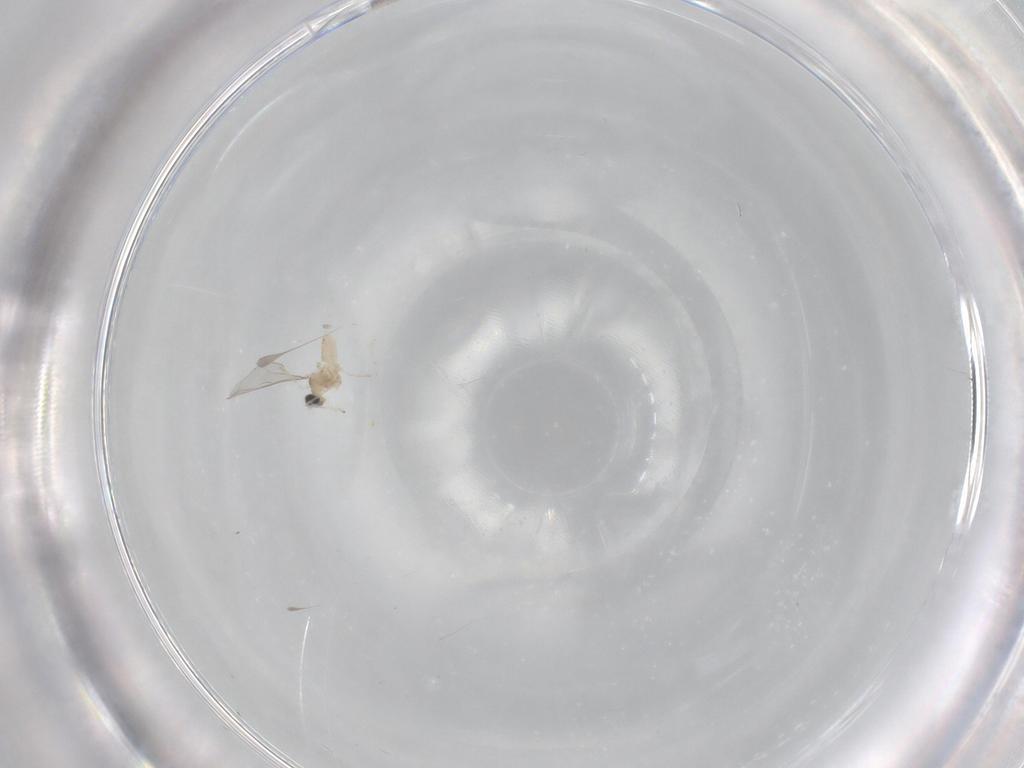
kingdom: Animalia
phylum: Arthropoda
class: Insecta
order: Diptera
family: Cecidomyiidae
